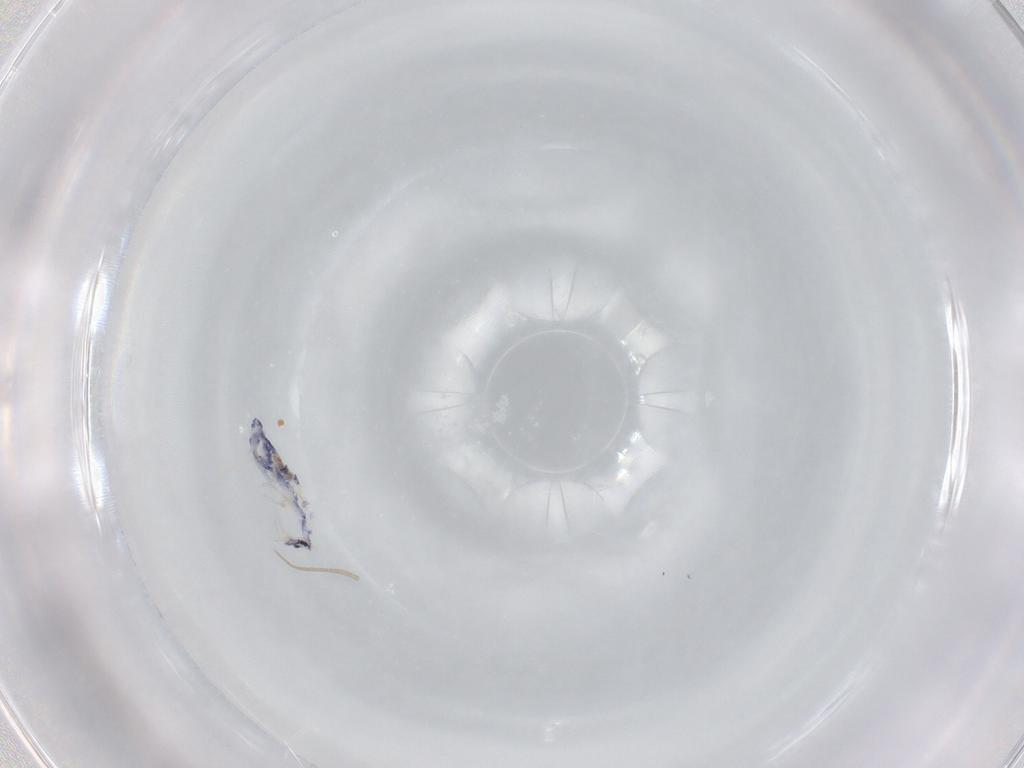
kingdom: Animalia
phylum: Arthropoda
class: Collembola
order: Entomobryomorpha
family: Entomobryidae
